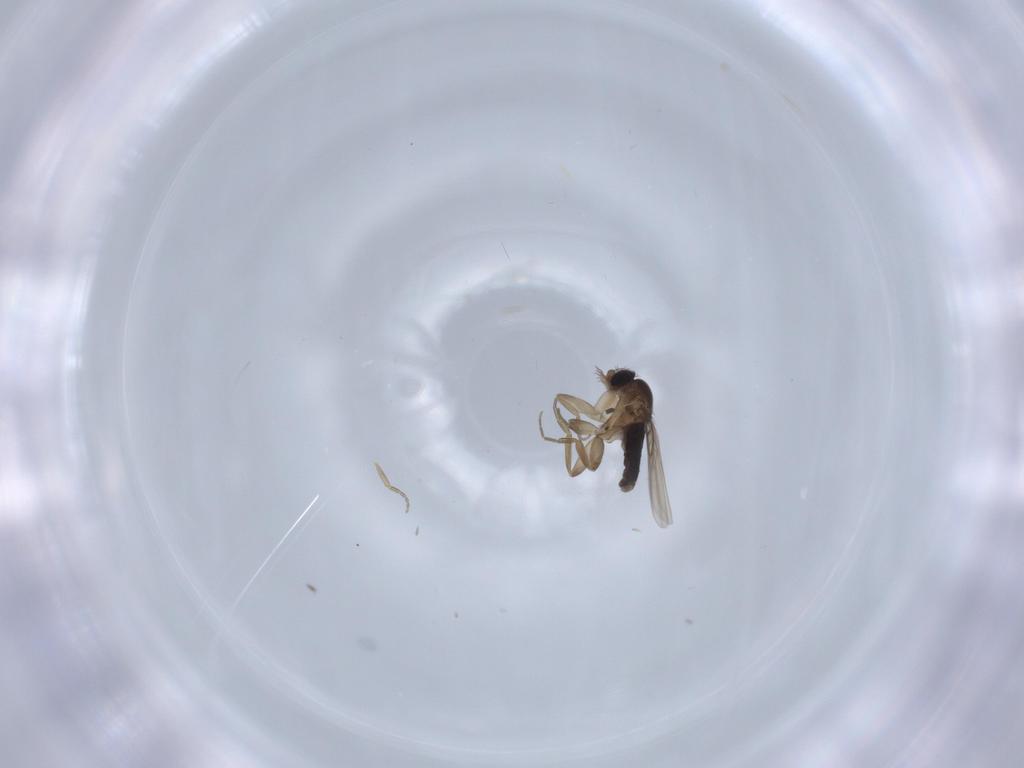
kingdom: Animalia
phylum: Arthropoda
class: Insecta
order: Diptera
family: Phoridae
